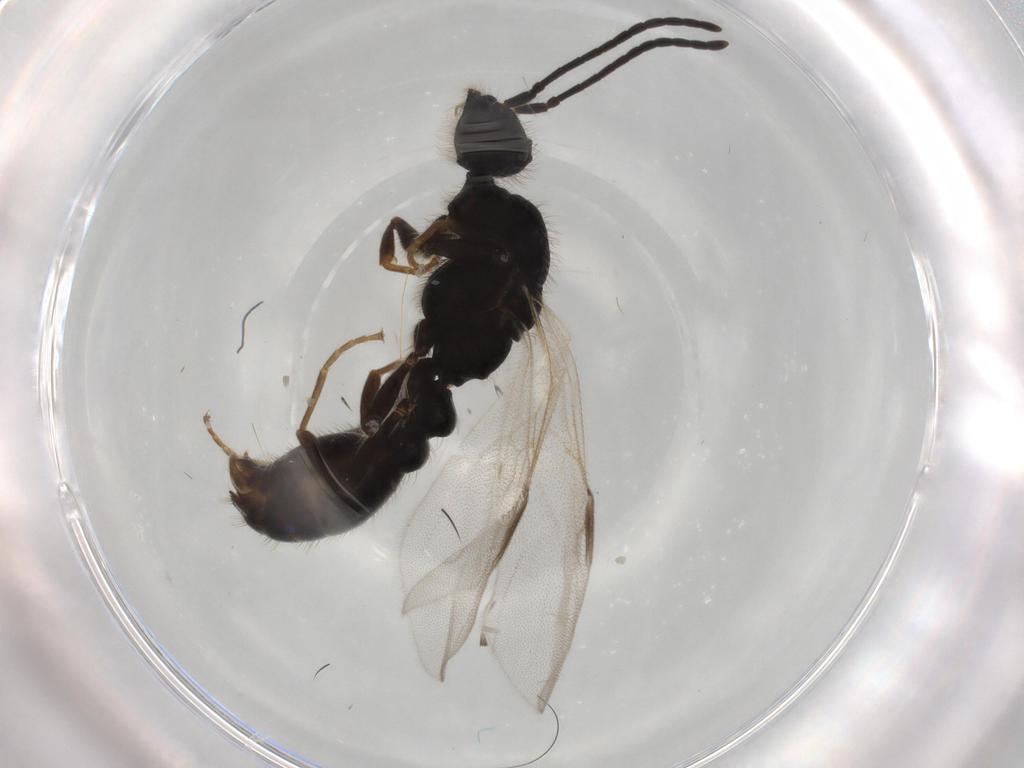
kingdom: Animalia
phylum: Arthropoda
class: Insecta
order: Hymenoptera
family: Formicidae
